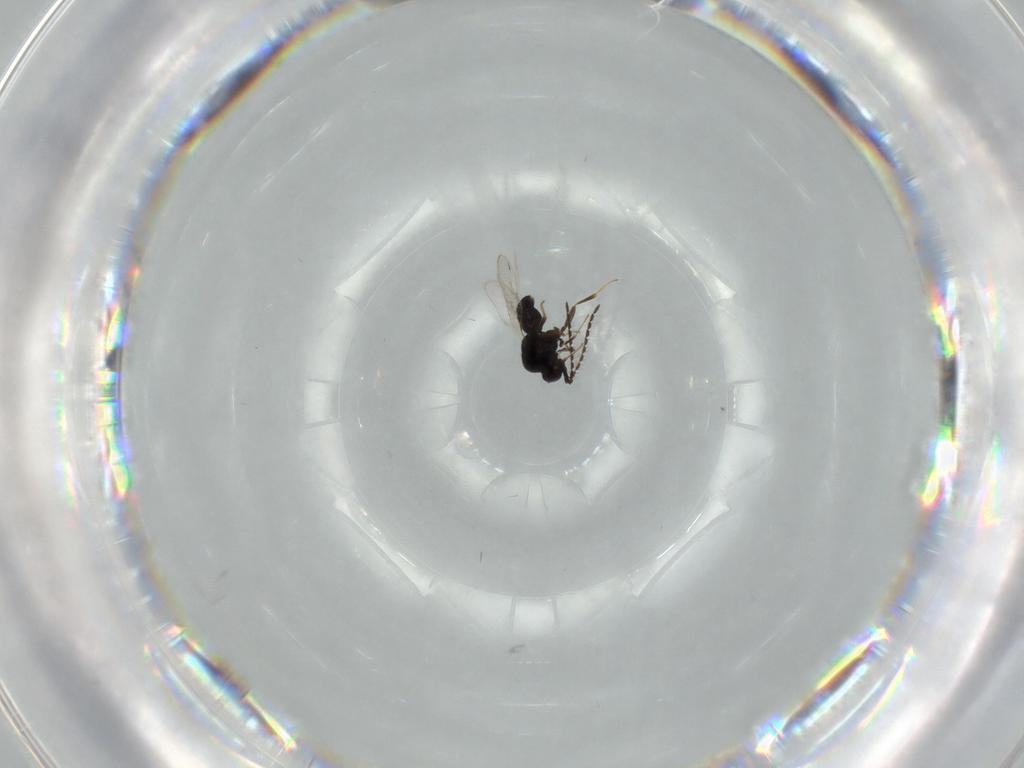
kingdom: Animalia
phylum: Arthropoda
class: Insecta
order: Hymenoptera
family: Ceraphronidae
